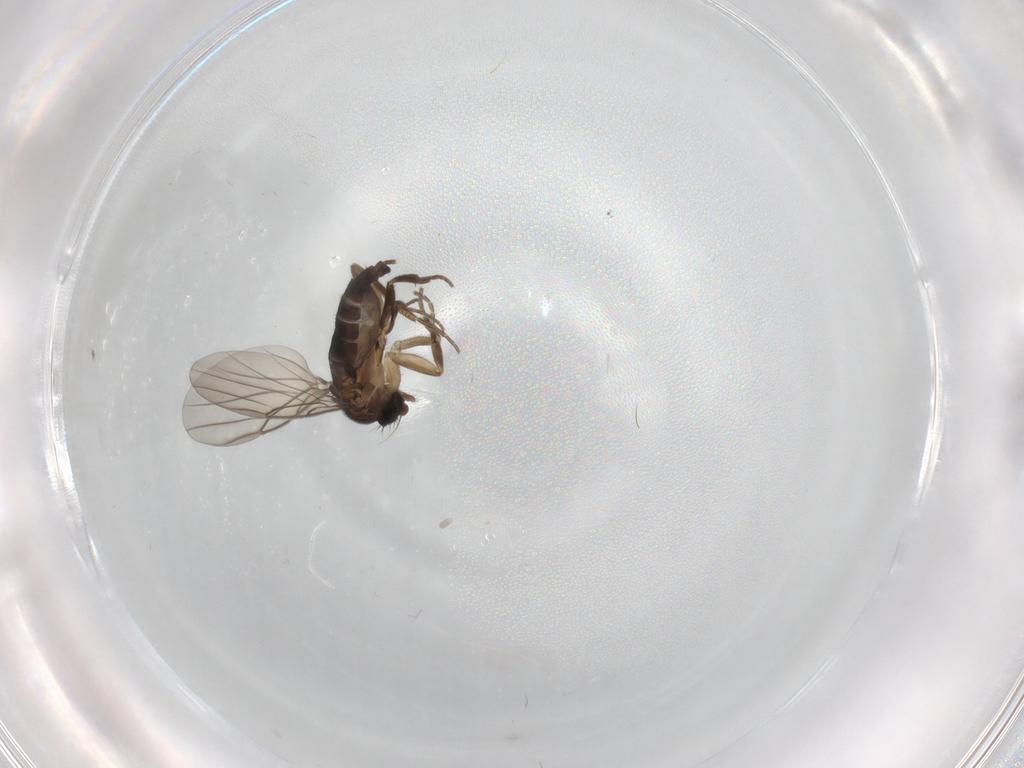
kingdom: Animalia
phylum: Arthropoda
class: Insecta
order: Diptera
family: Phoridae
